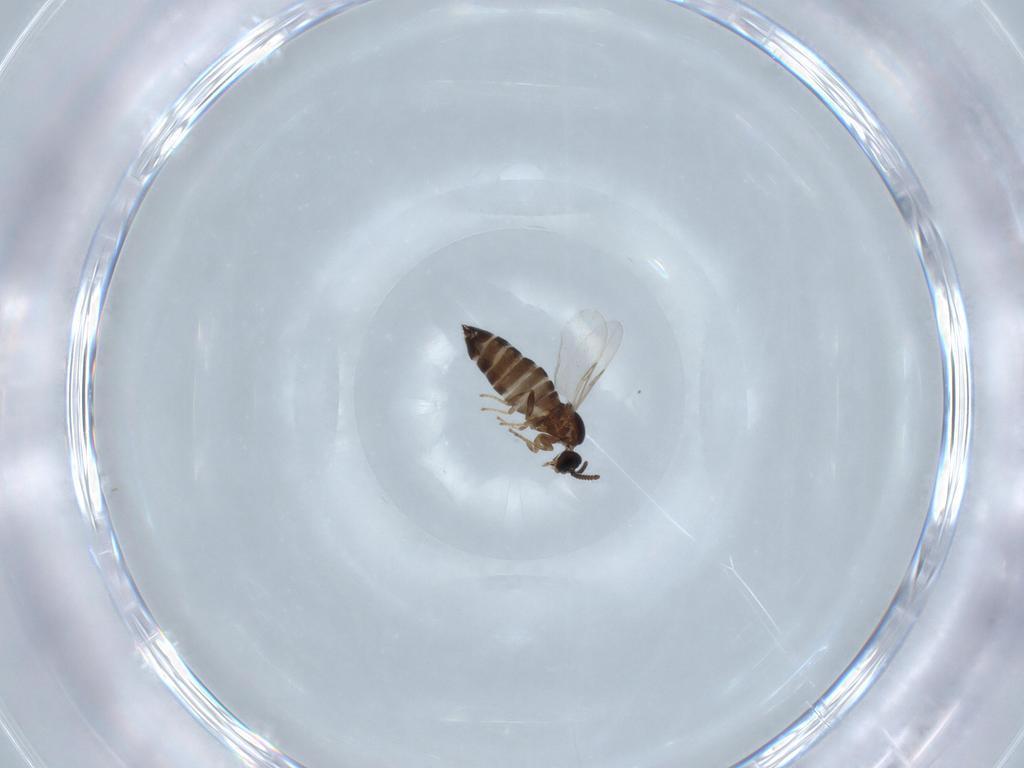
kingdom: Animalia
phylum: Arthropoda
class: Insecta
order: Diptera
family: Scatopsidae
